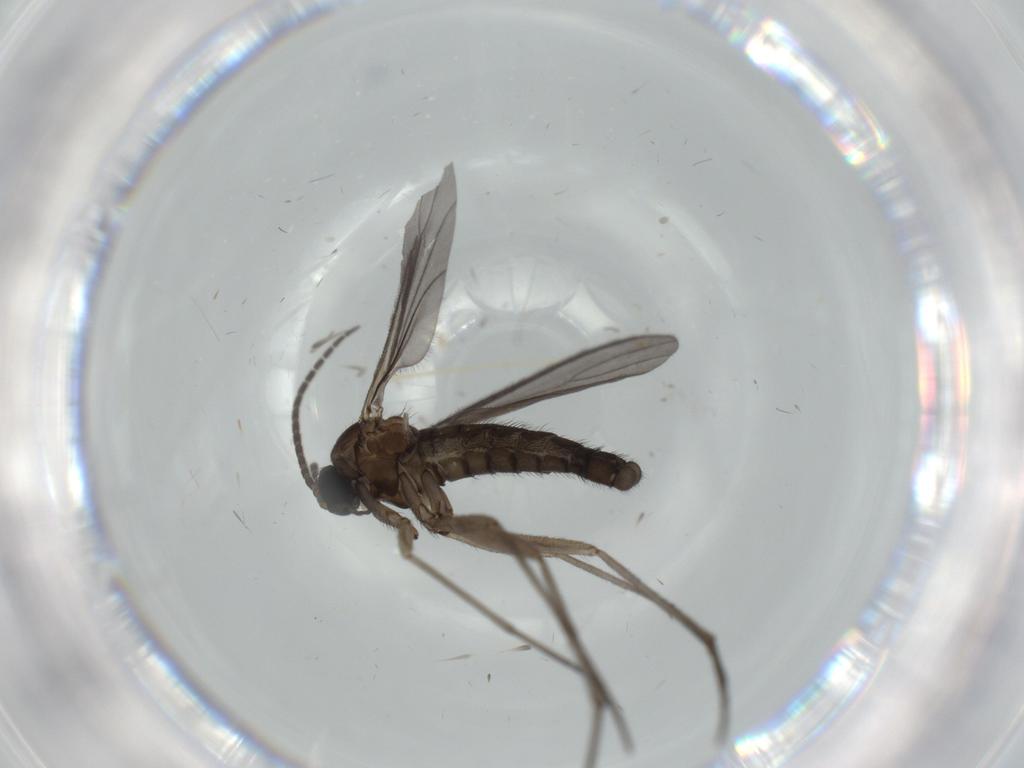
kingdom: Animalia
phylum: Arthropoda
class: Insecta
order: Diptera
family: Sciaridae
